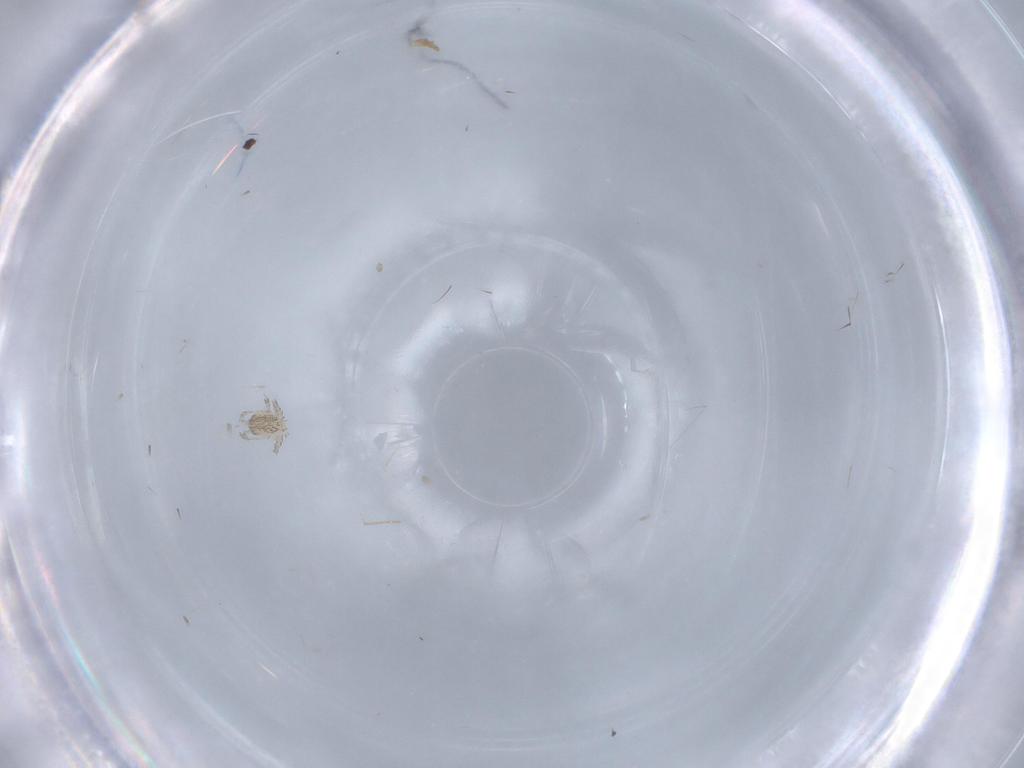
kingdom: Animalia
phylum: Arthropoda
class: Arachnida
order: Trombidiformes
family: Erythraeidae
